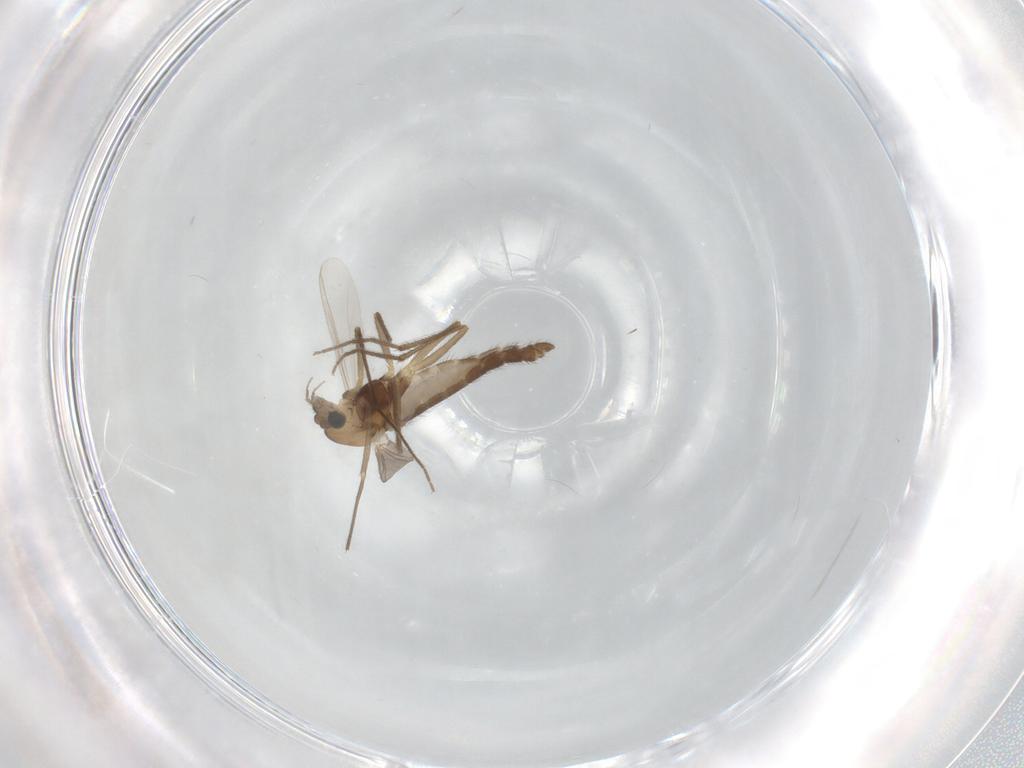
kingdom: Animalia
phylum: Arthropoda
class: Insecta
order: Diptera
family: Chironomidae
